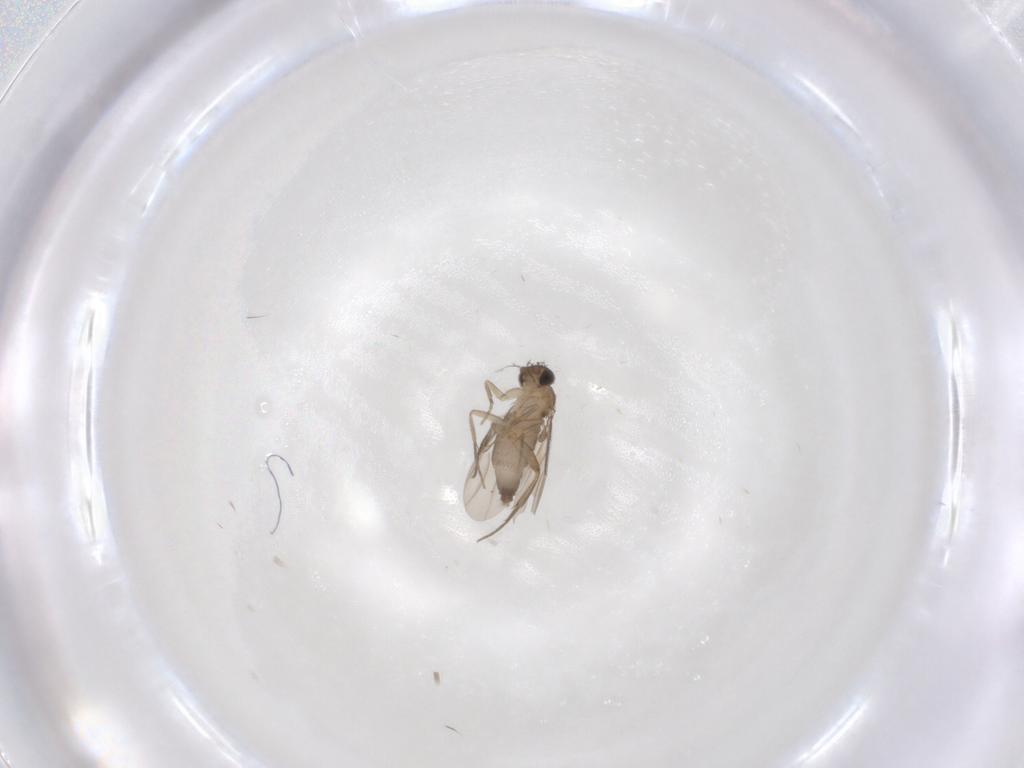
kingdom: Animalia
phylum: Arthropoda
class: Insecta
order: Diptera
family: Phoridae
